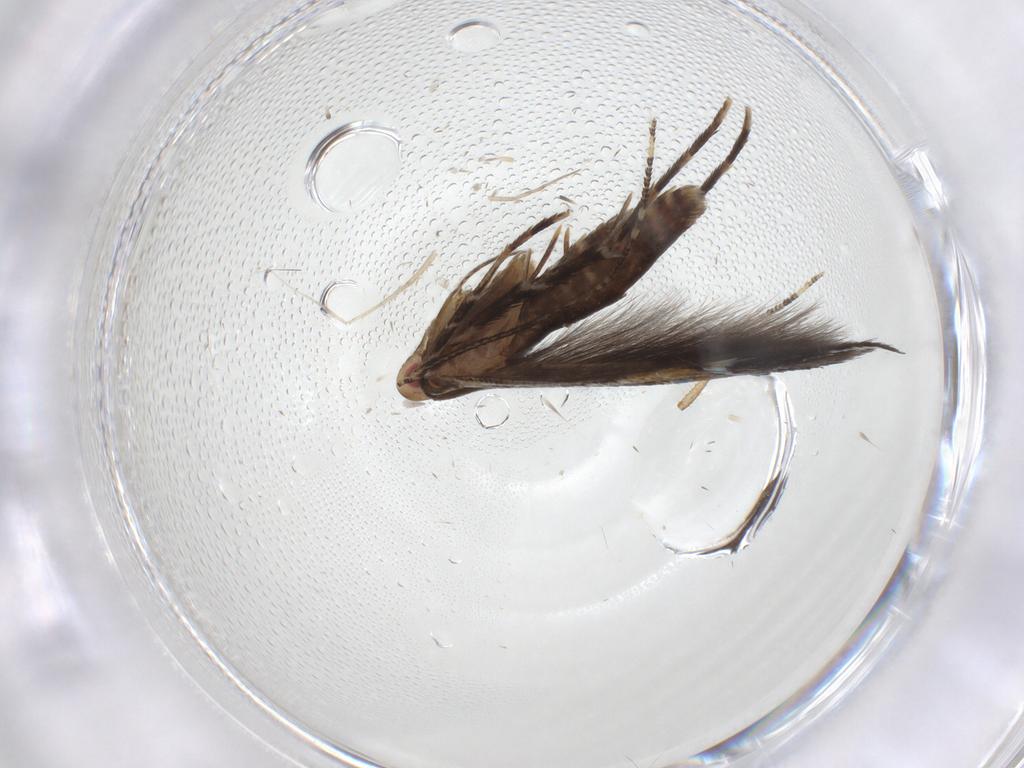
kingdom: Animalia
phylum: Arthropoda
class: Insecta
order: Lepidoptera
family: Cosmopterigidae
